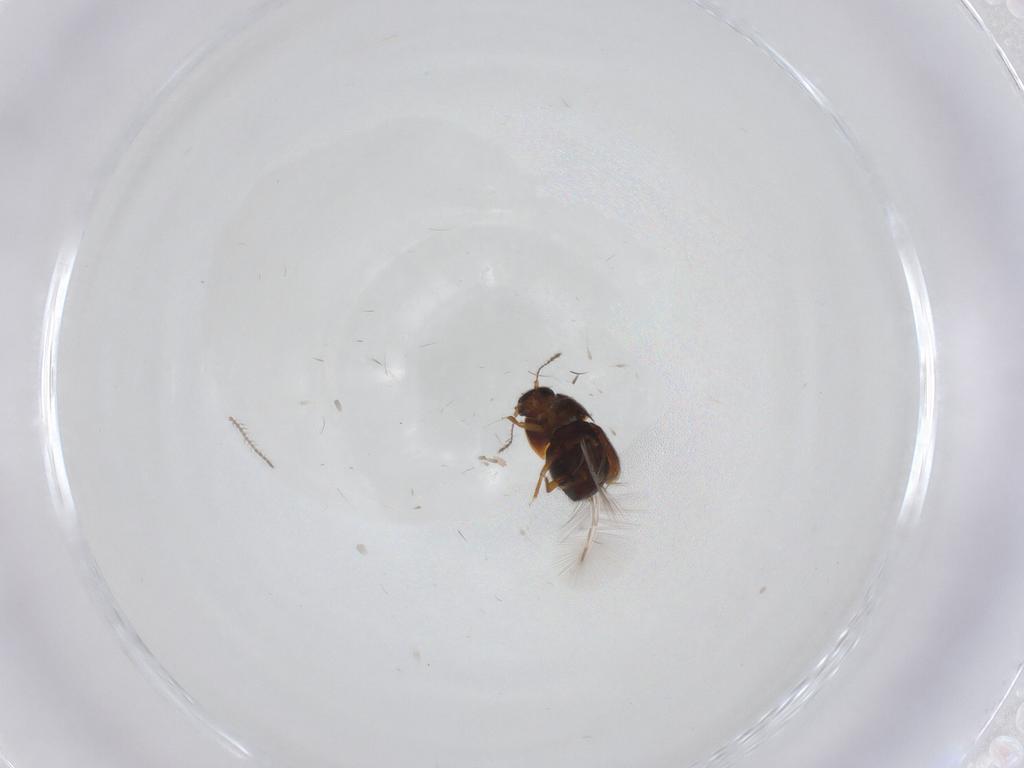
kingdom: Animalia
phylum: Arthropoda
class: Insecta
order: Coleoptera
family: Ptiliidae
